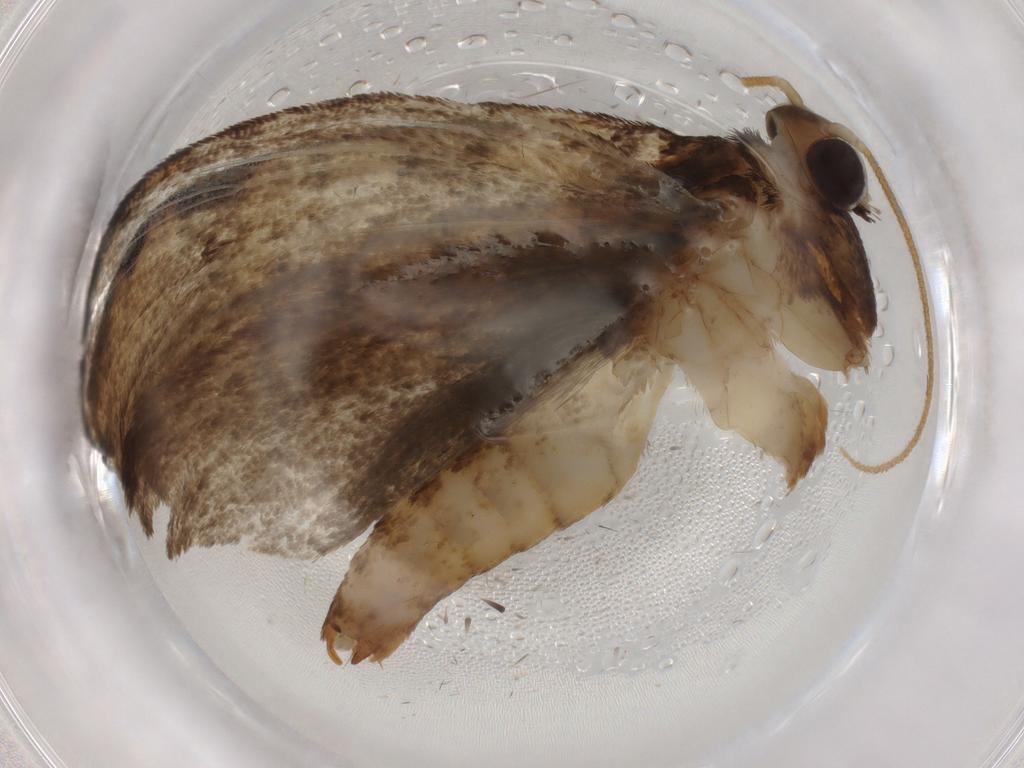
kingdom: Animalia
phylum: Arthropoda
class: Insecta
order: Lepidoptera
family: Tineidae
